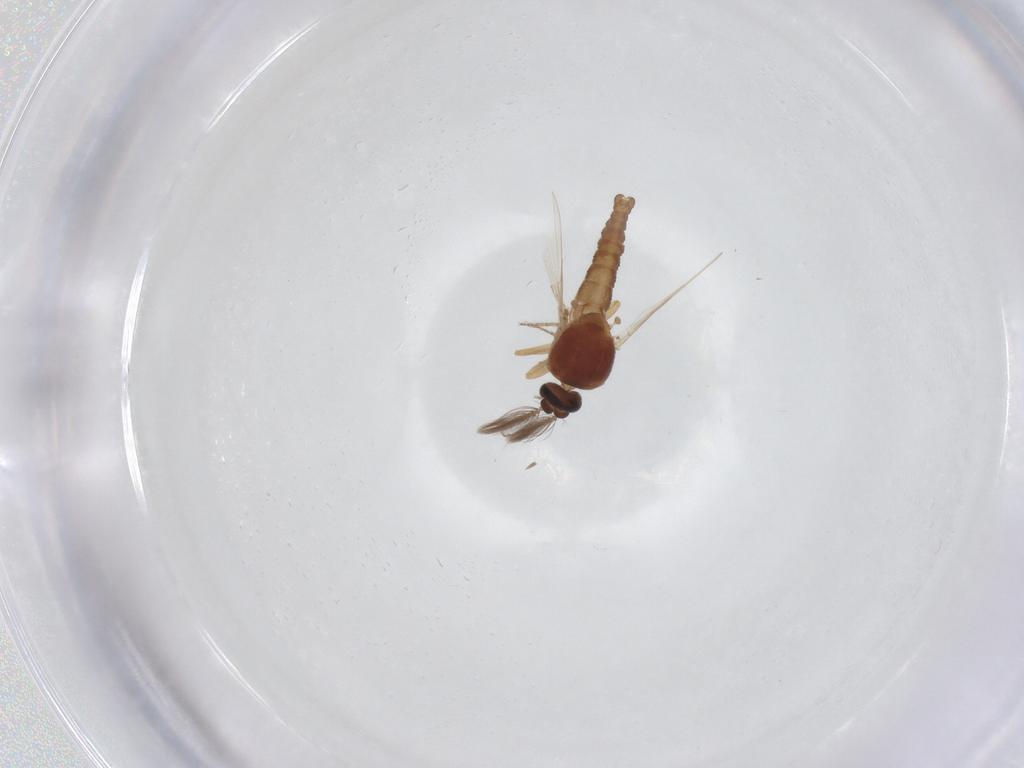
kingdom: Animalia
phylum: Arthropoda
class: Insecta
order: Diptera
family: Ceratopogonidae
